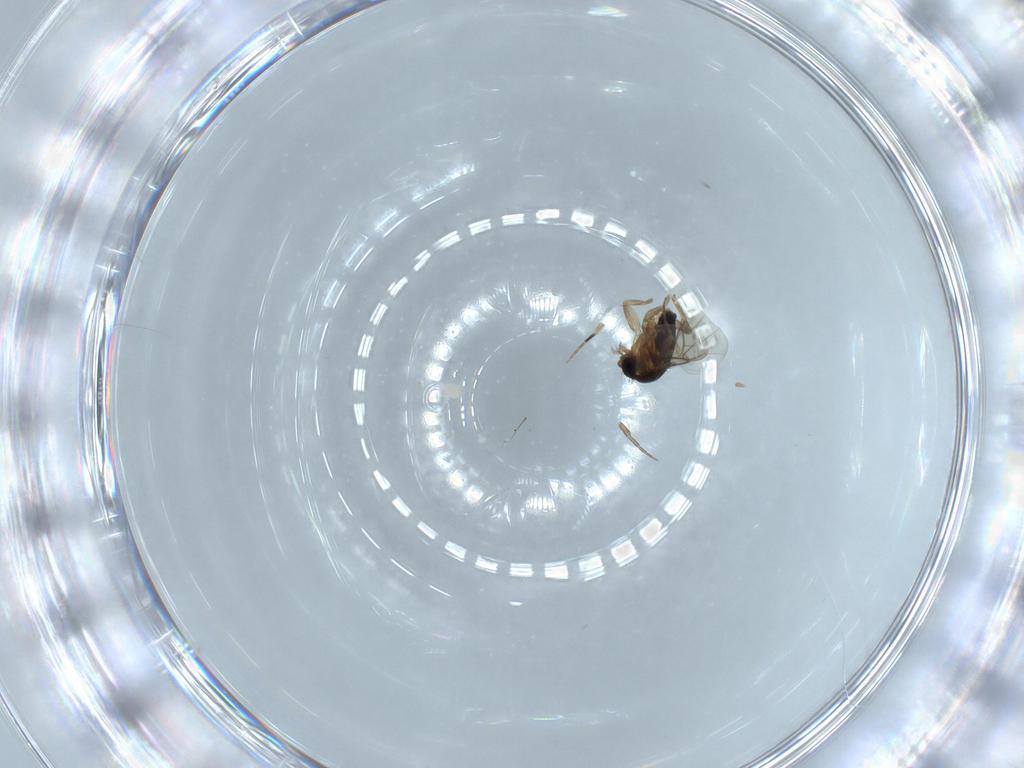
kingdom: Animalia
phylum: Arthropoda
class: Insecta
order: Diptera
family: Phoridae
